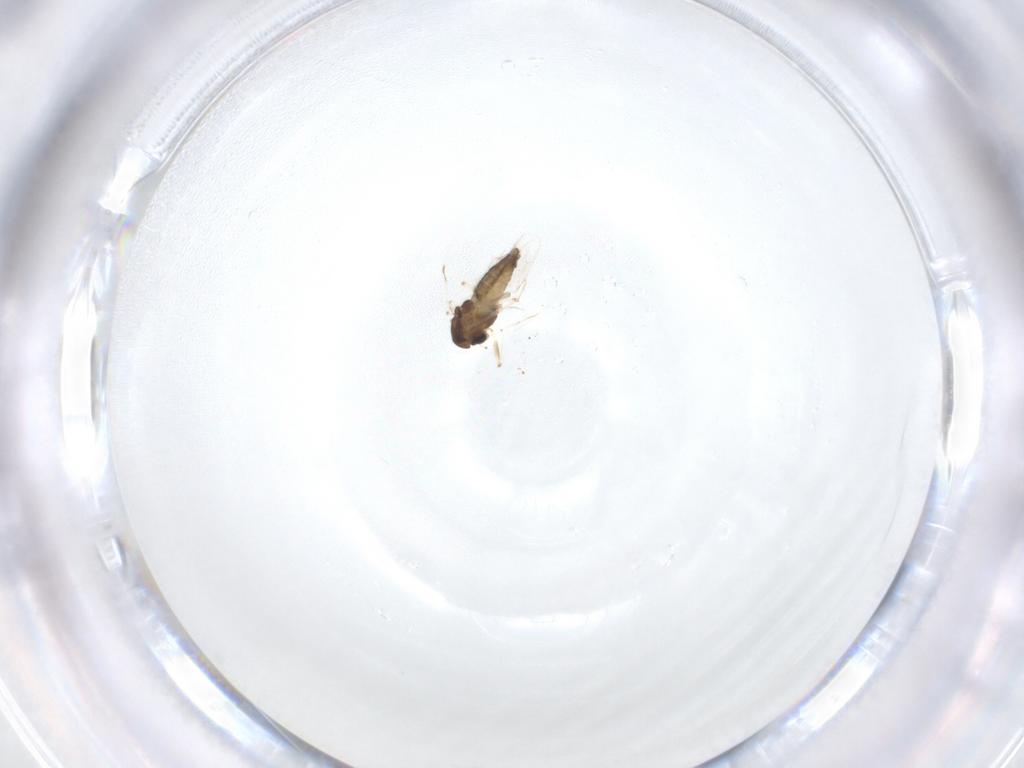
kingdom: Animalia
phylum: Arthropoda
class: Insecta
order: Diptera
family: Chironomidae
